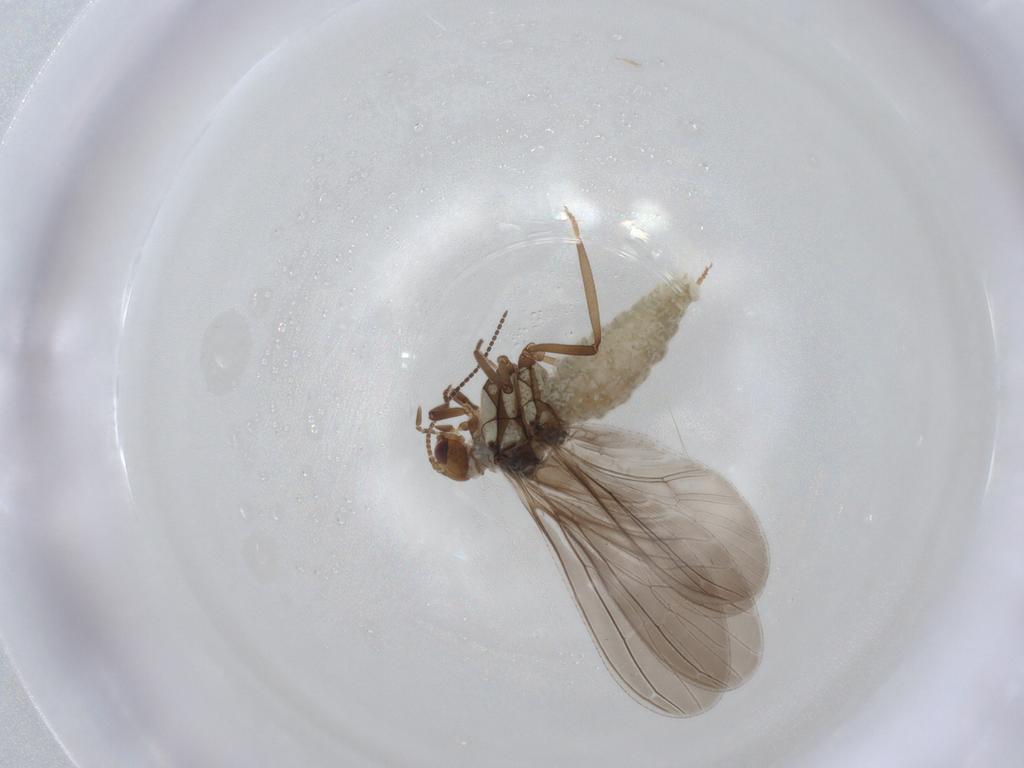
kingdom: Animalia
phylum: Arthropoda
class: Insecta
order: Neuroptera
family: Coniopterygidae
